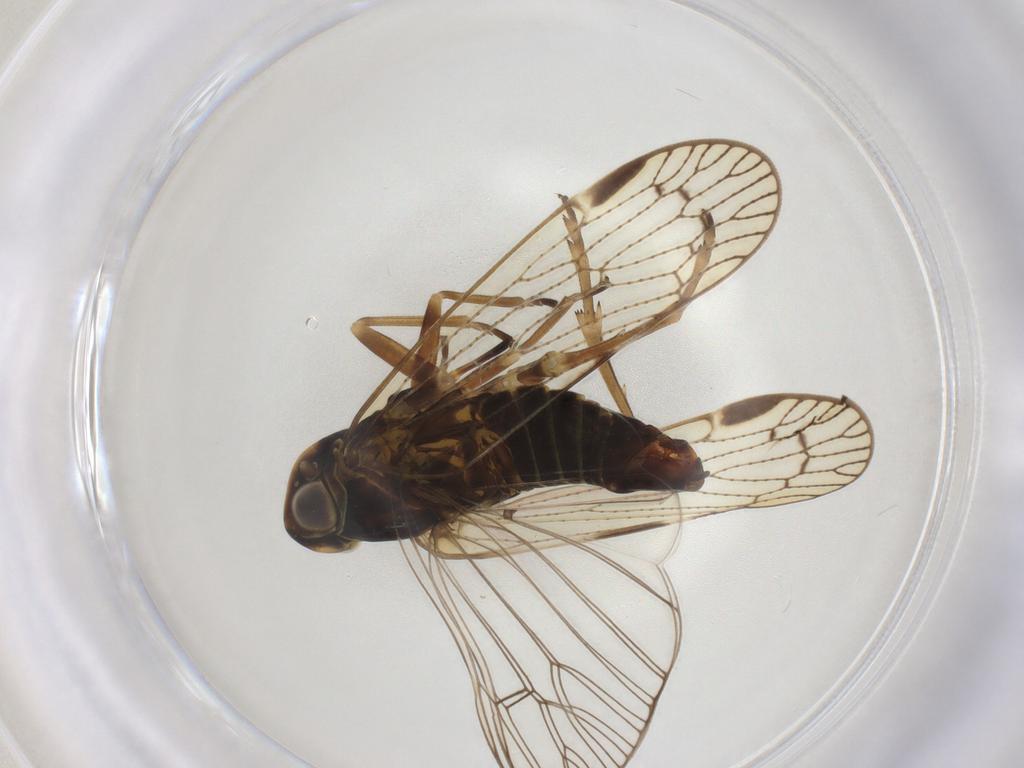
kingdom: Animalia
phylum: Arthropoda
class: Insecta
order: Hemiptera
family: Cixiidae
